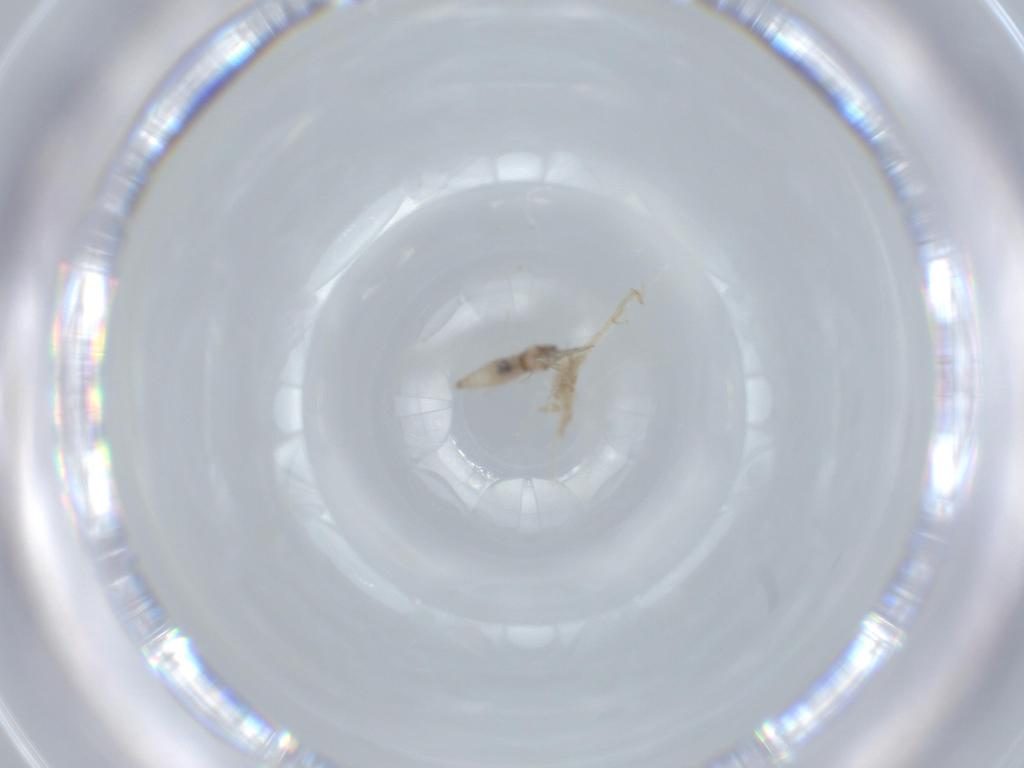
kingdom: Animalia
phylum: Arthropoda
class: Insecta
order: Diptera
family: Cecidomyiidae
